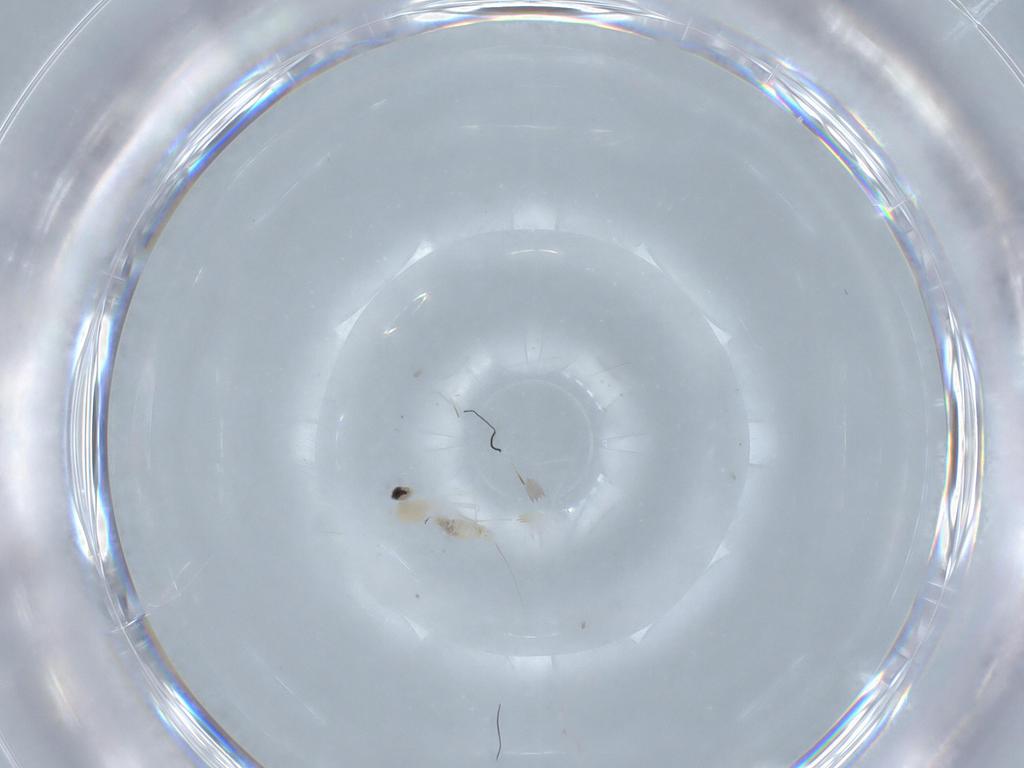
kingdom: Animalia
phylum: Arthropoda
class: Insecta
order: Diptera
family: Cecidomyiidae
